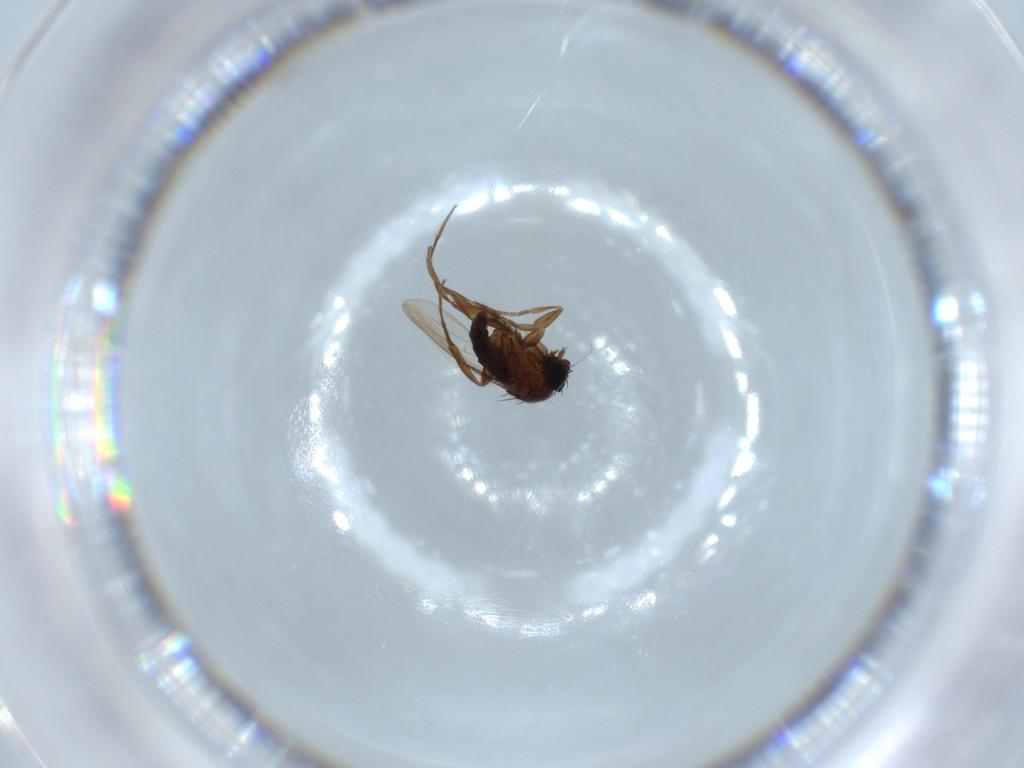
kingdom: Animalia
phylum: Arthropoda
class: Insecta
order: Diptera
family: Phoridae
